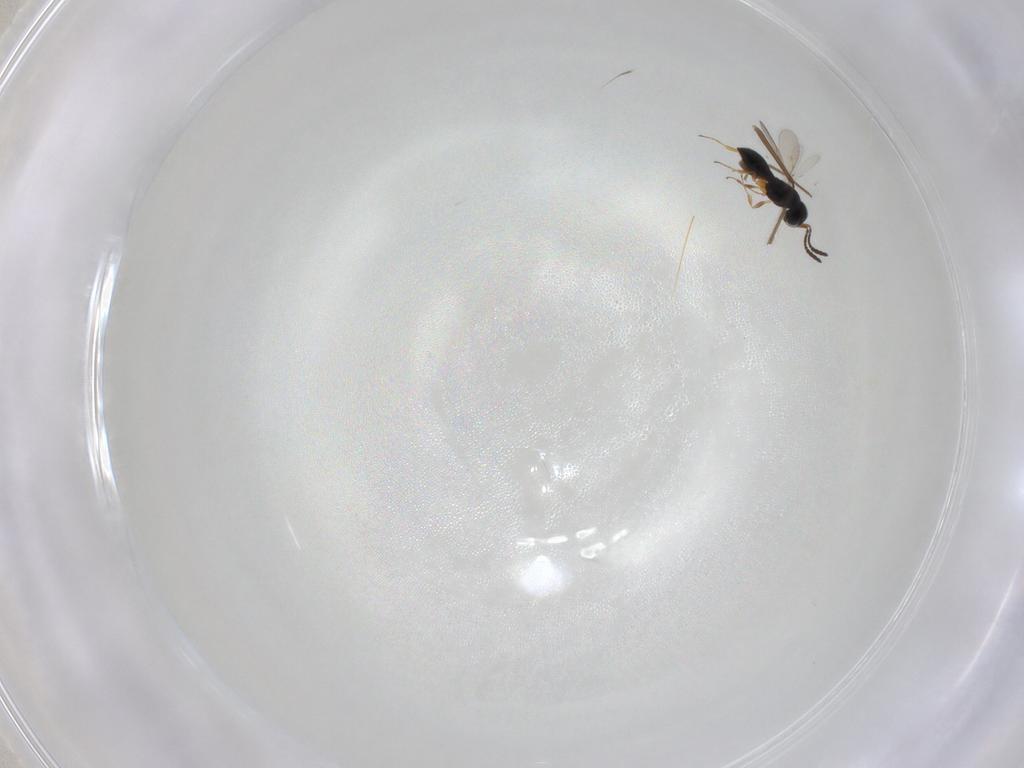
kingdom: Animalia
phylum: Arthropoda
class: Insecta
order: Hymenoptera
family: Scelionidae
